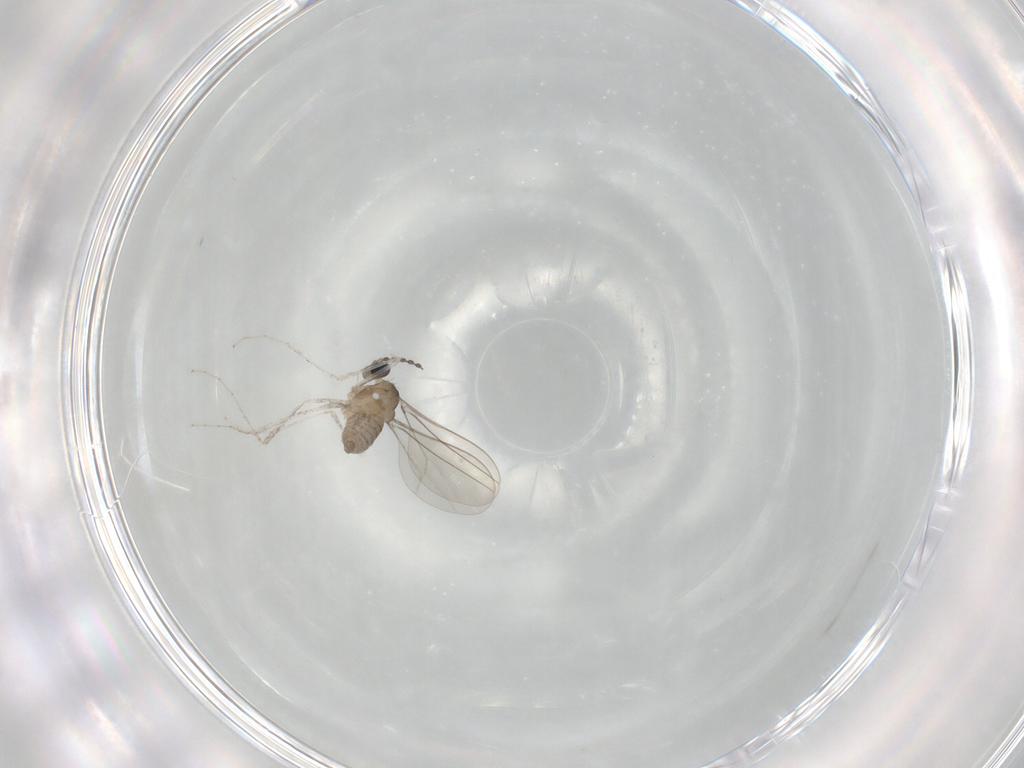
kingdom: Animalia
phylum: Arthropoda
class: Insecta
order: Diptera
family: Cecidomyiidae
